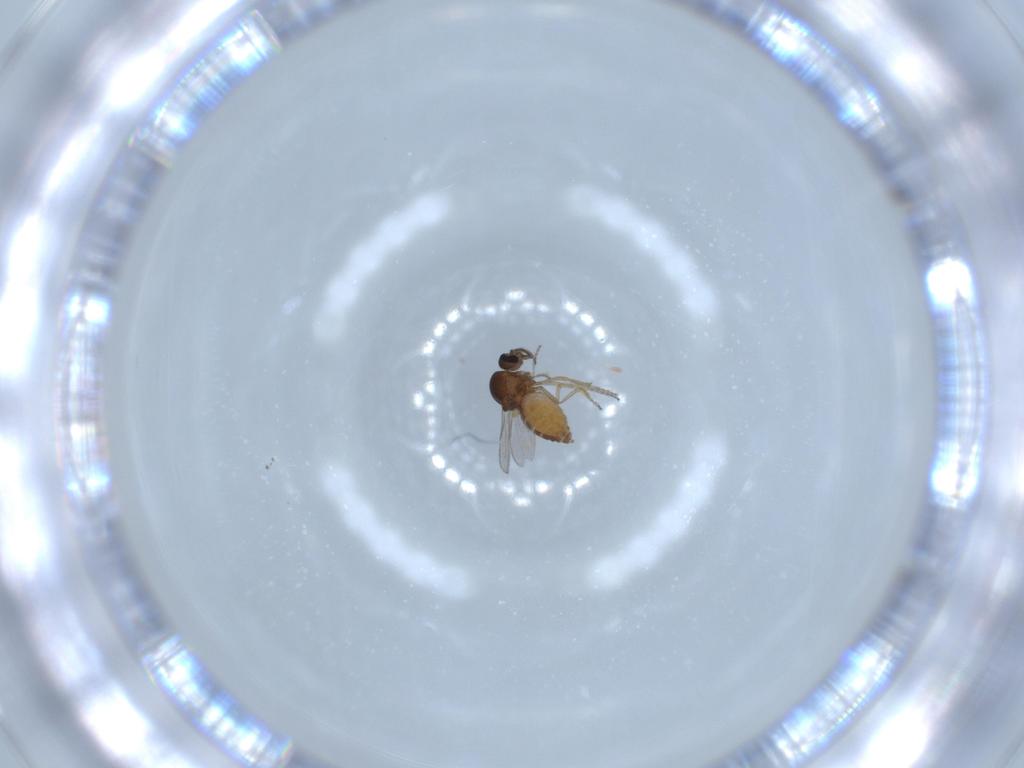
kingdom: Animalia
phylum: Arthropoda
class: Insecta
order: Diptera
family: Ceratopogonidae
